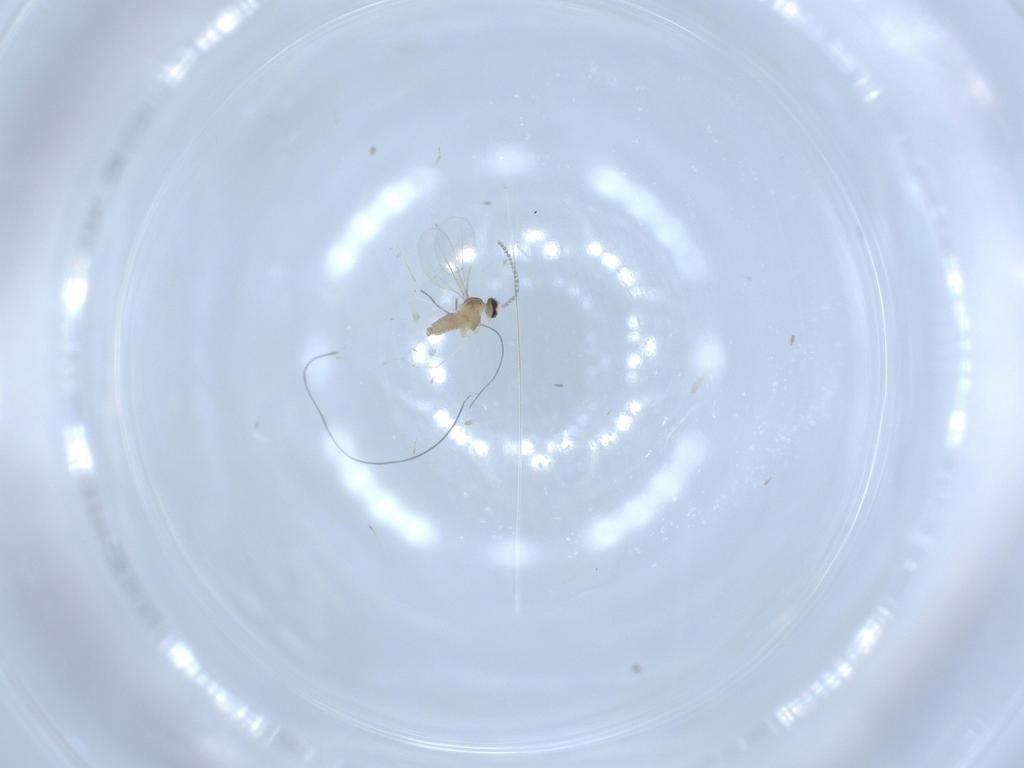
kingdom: Animalia
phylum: Arthropoda
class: Insecta
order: Diptera
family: Cecidomyiidae
